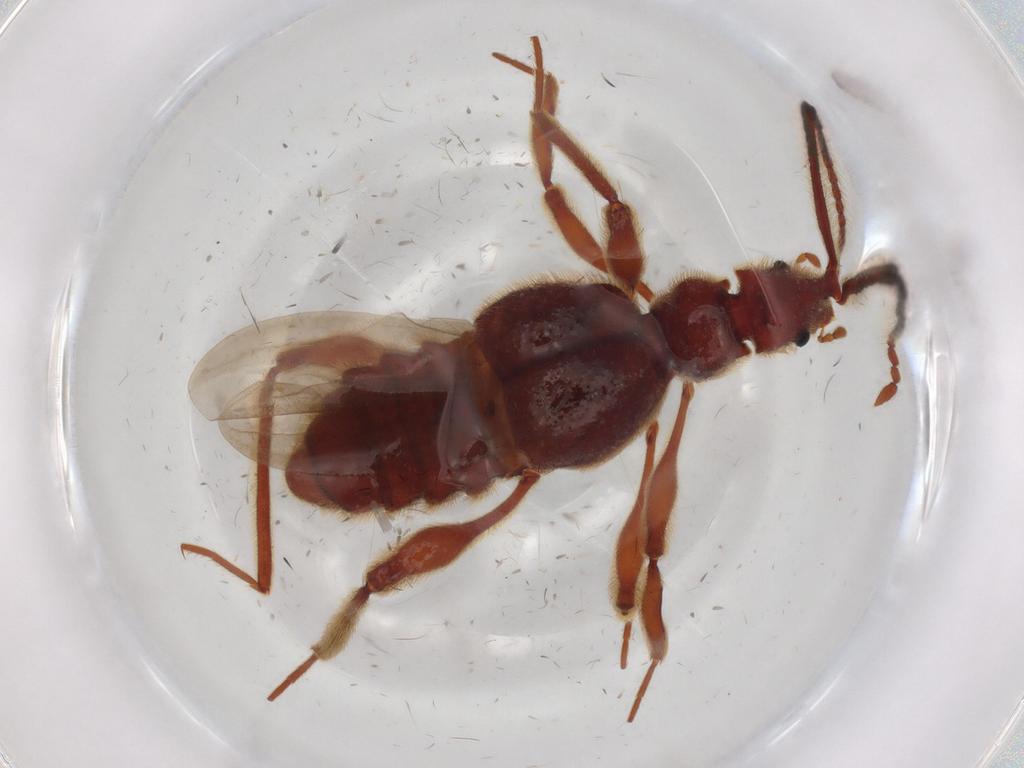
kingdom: Animalia
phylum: Arthropoda
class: Insecta
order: Coleoptera
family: Staphylinidae
